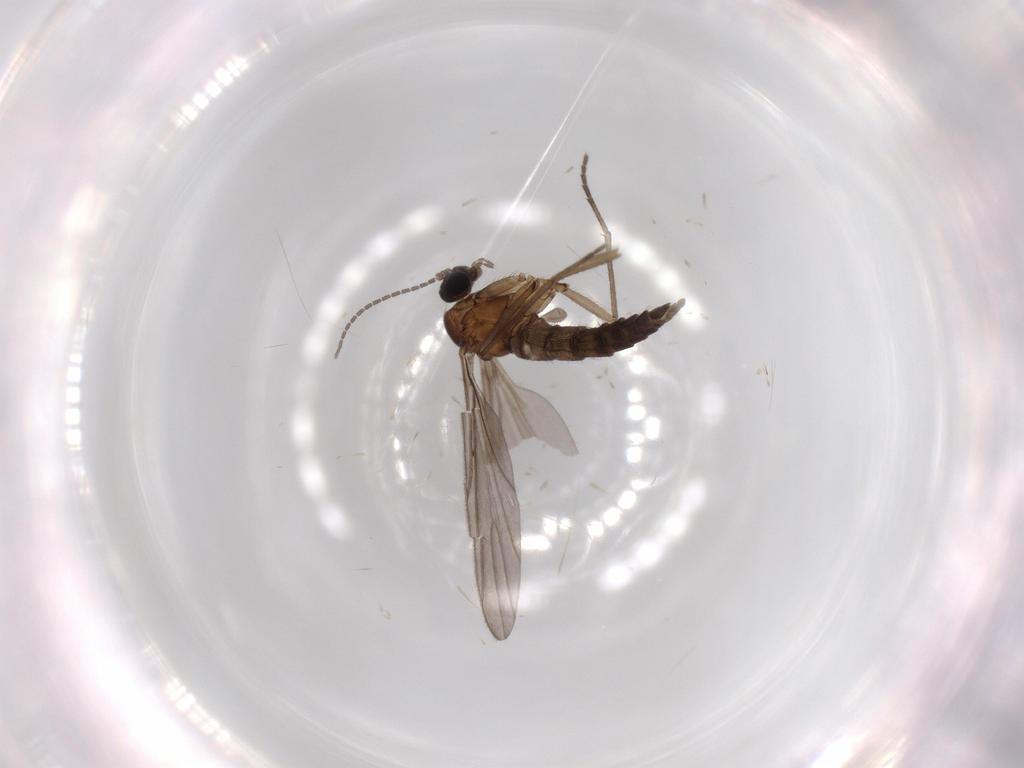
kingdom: Animalia
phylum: Arthropoda
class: Insecta
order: Diptera
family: Sciaridae
